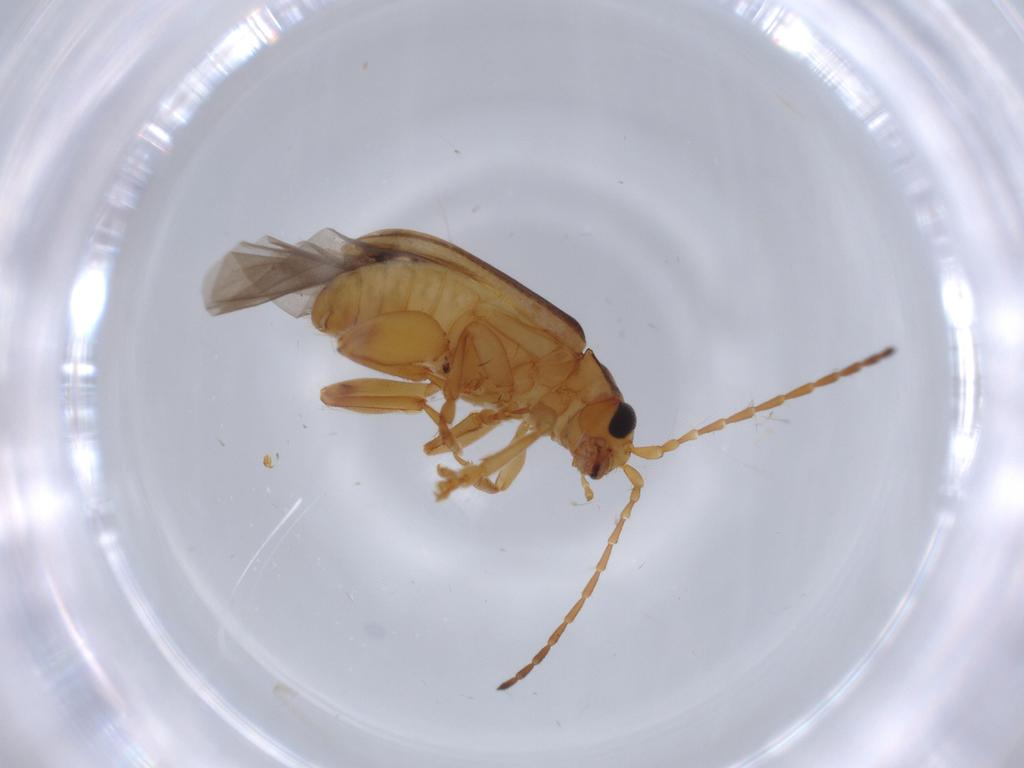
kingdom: Animalia
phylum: Arthropoda
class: Insecta
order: Coleoptera
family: Chrysomelidae
